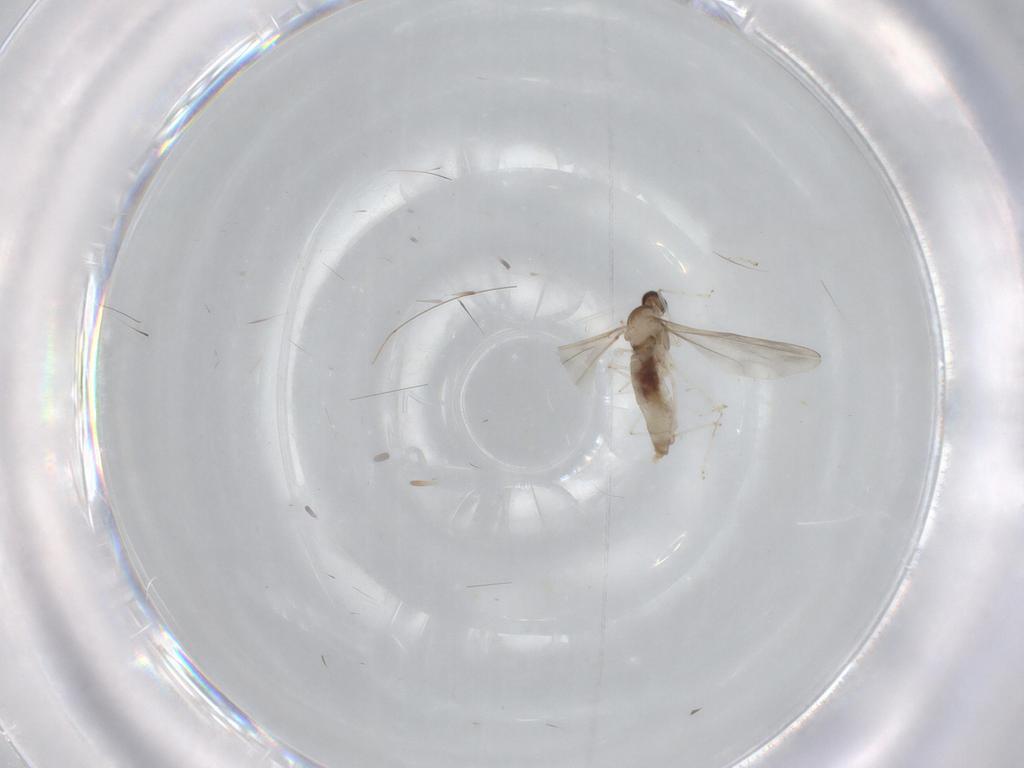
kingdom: Animalia
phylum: Arthropoda
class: Insecta
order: Diptera
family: Cecidomyiidae
